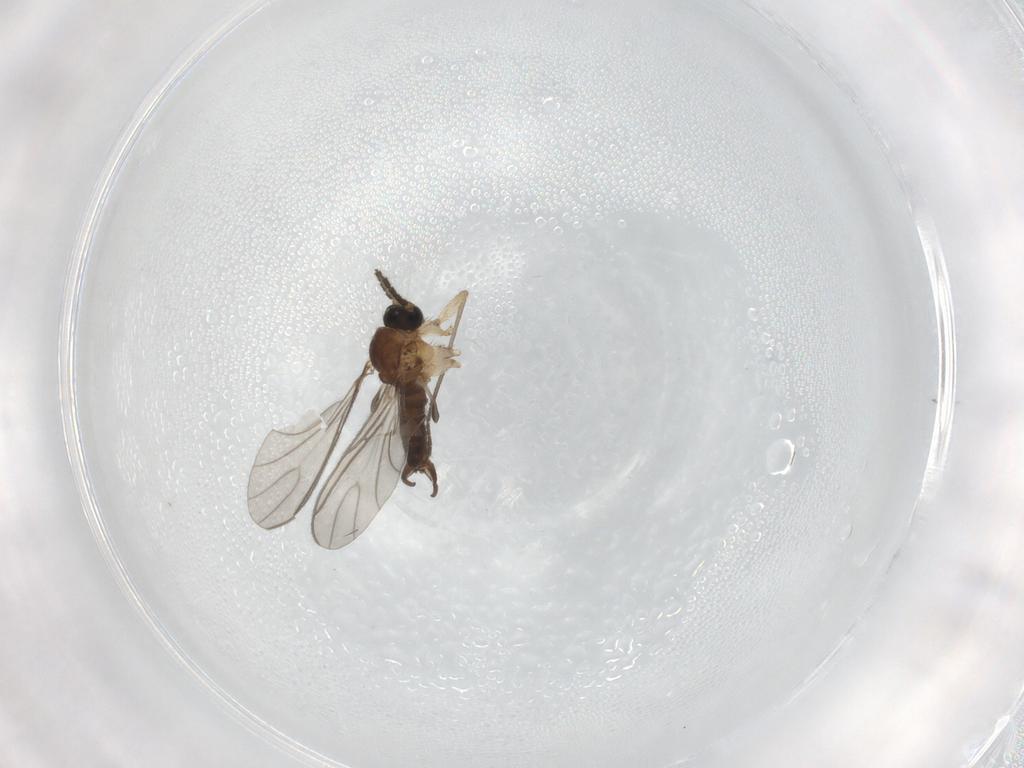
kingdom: Animalia
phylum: Arthropoda
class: Insecta
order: Diptera
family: Sciaridae
